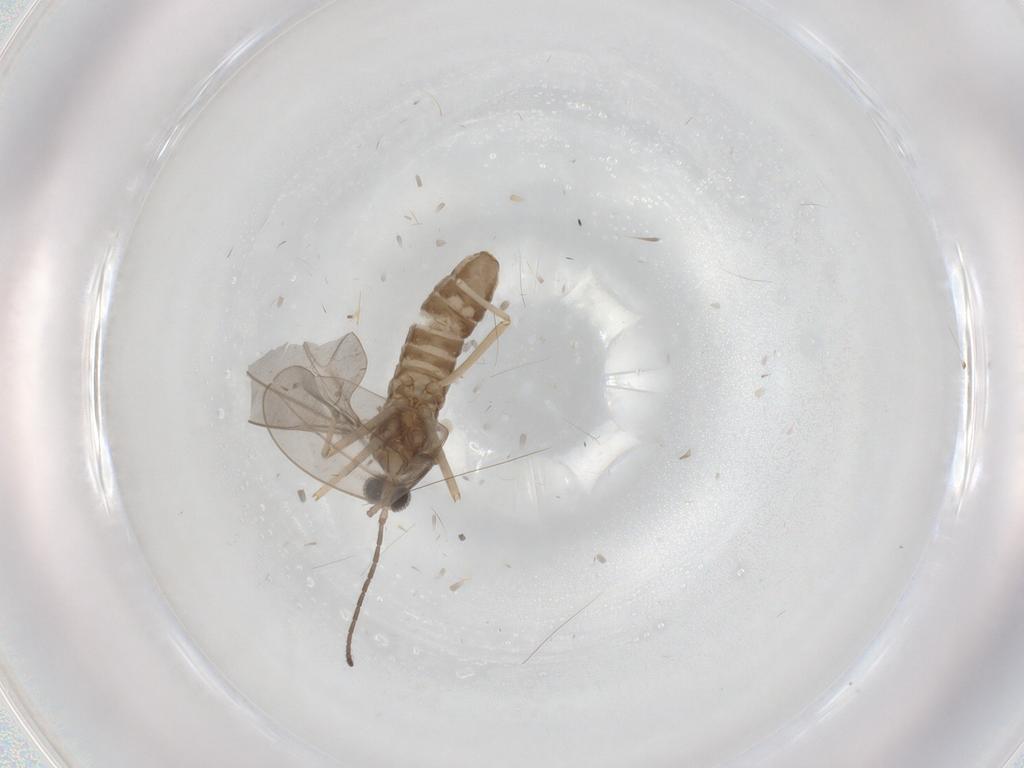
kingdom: Animalia
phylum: Arthropoda
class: Insecta
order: Diptera
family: Cecidomyiidae
